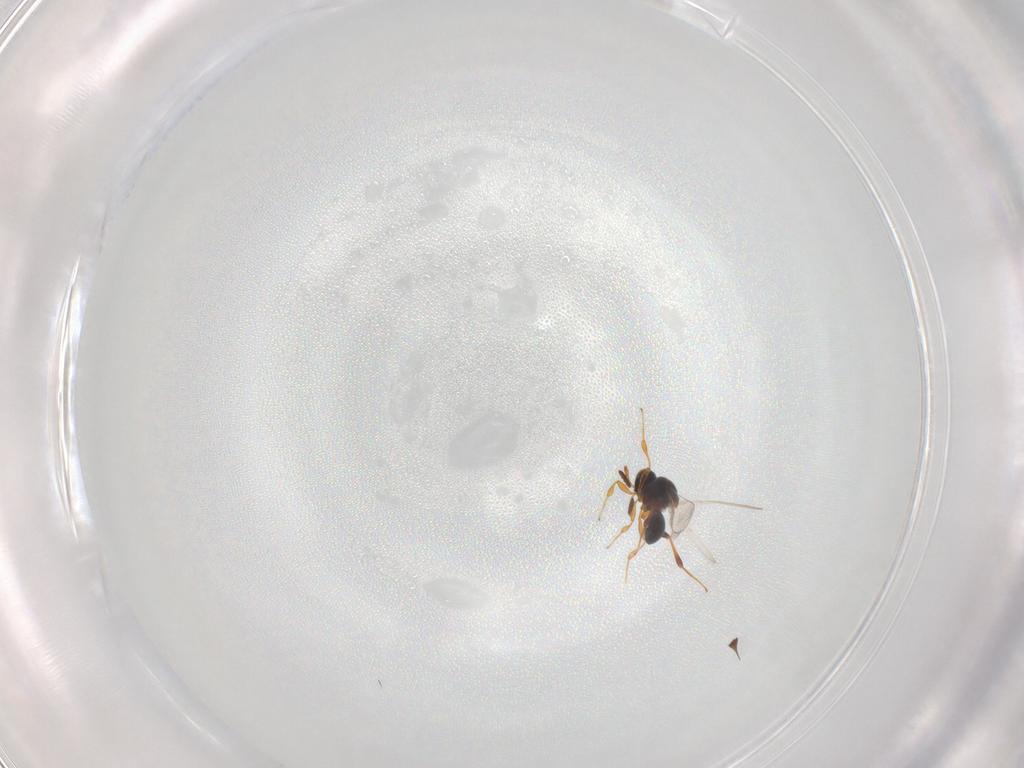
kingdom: Animalia
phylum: Arthropoda
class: Insecta
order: Hymenoptera
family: Platygastridae
